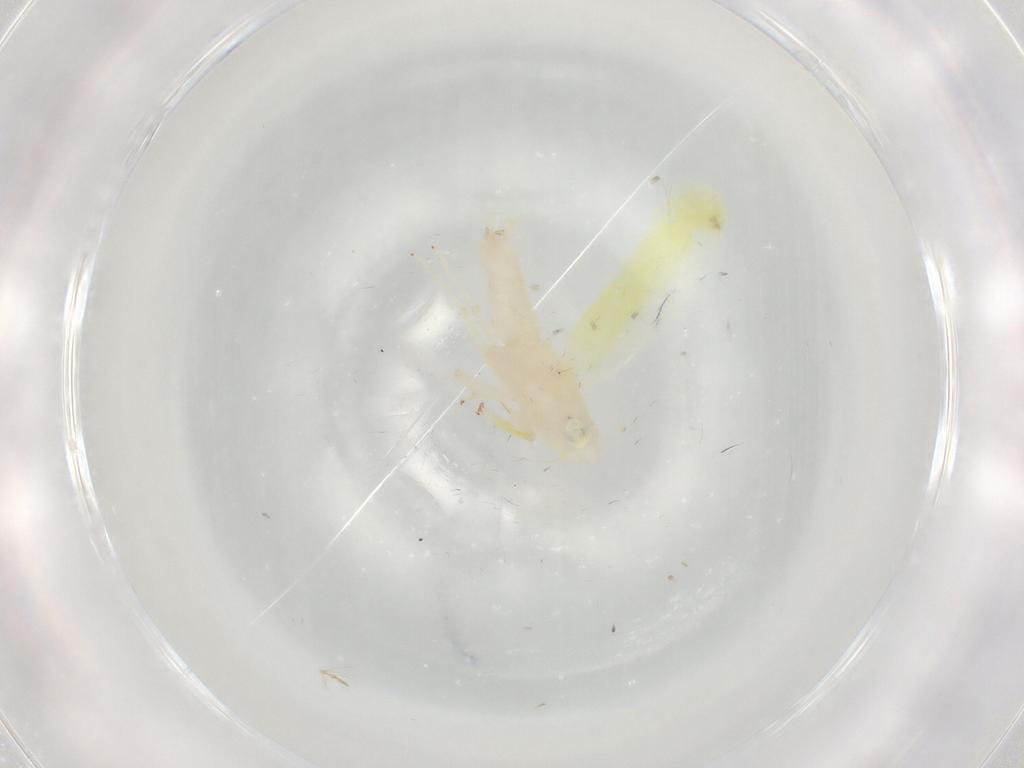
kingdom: Animalia
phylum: Arthropoda
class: Insecta
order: Hemiptera
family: Cicadellidae
